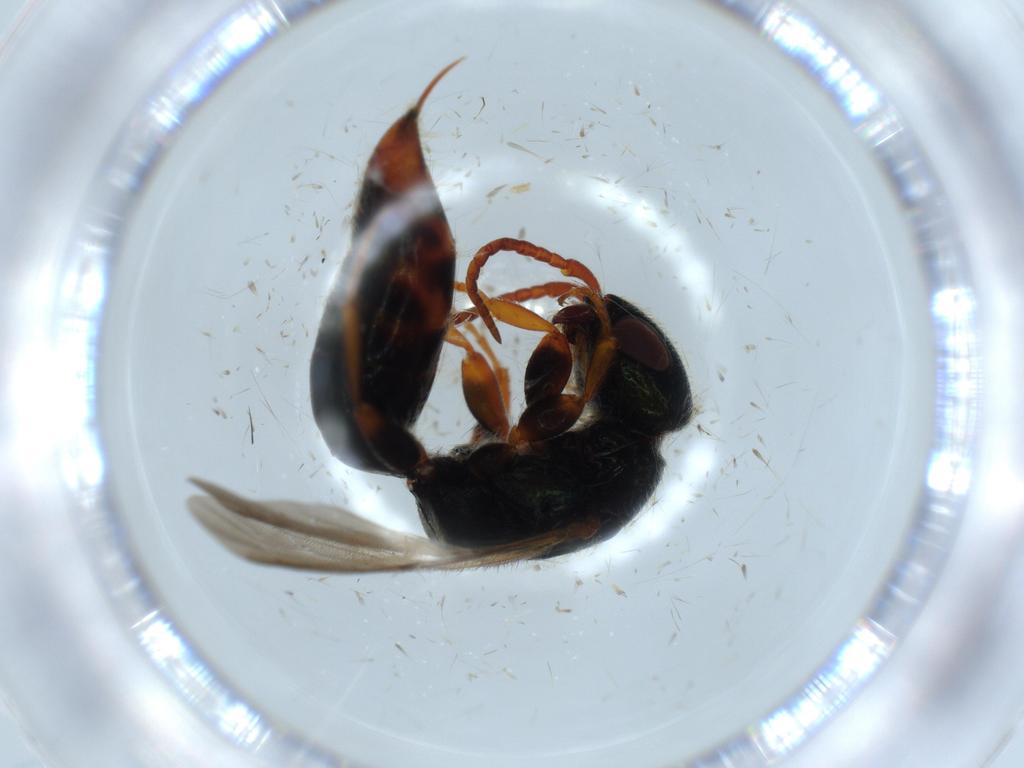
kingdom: Animalia
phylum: Arthropoda
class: Insecta
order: Hymenoptera
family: Bethylidae
